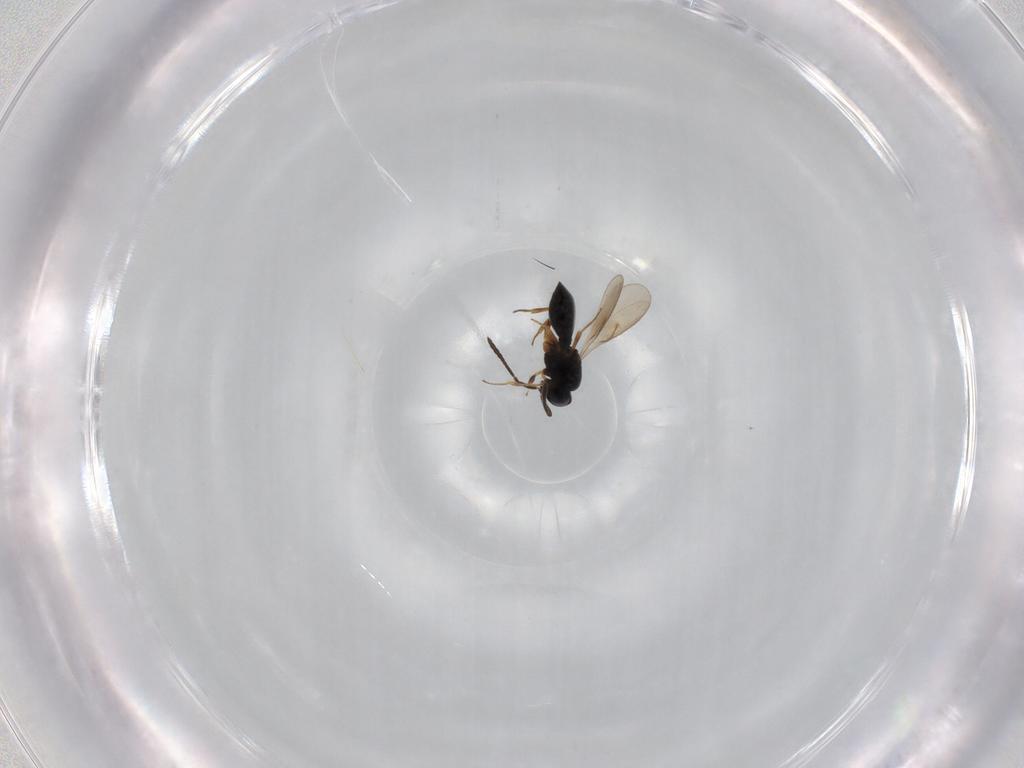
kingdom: Animalia
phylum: Arthropoda
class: Insecta
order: Hymenoptera
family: Scelionidae
